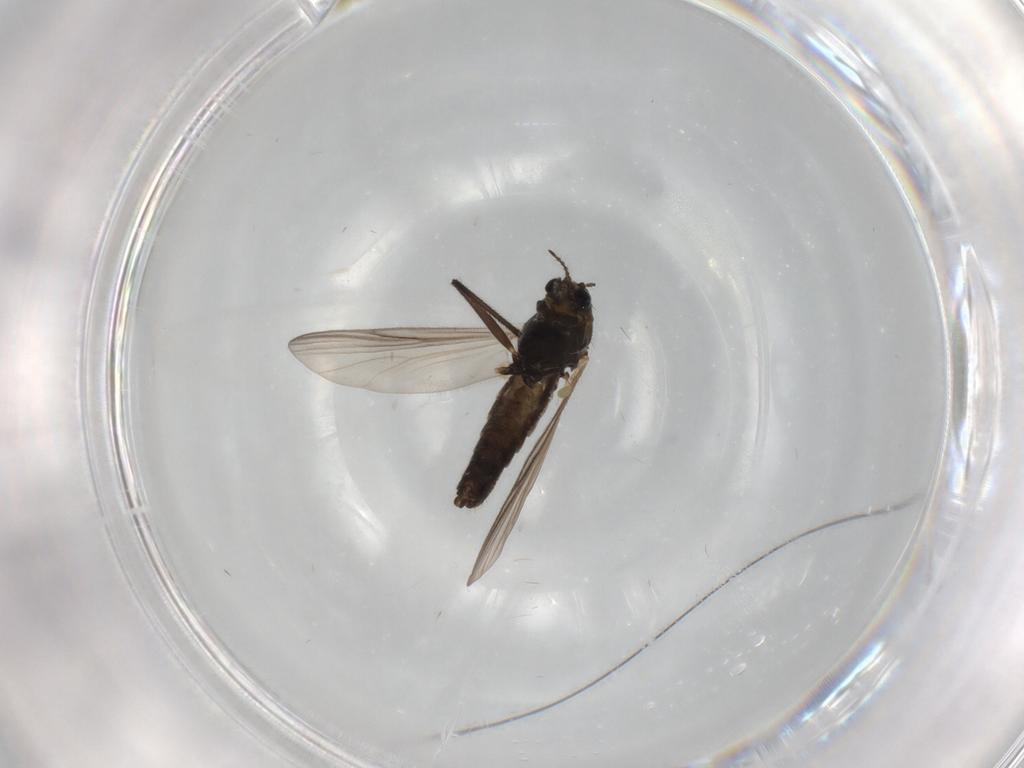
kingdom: Animalia
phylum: Arthropoda
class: Insecta
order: Diptera
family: Chironomidae
